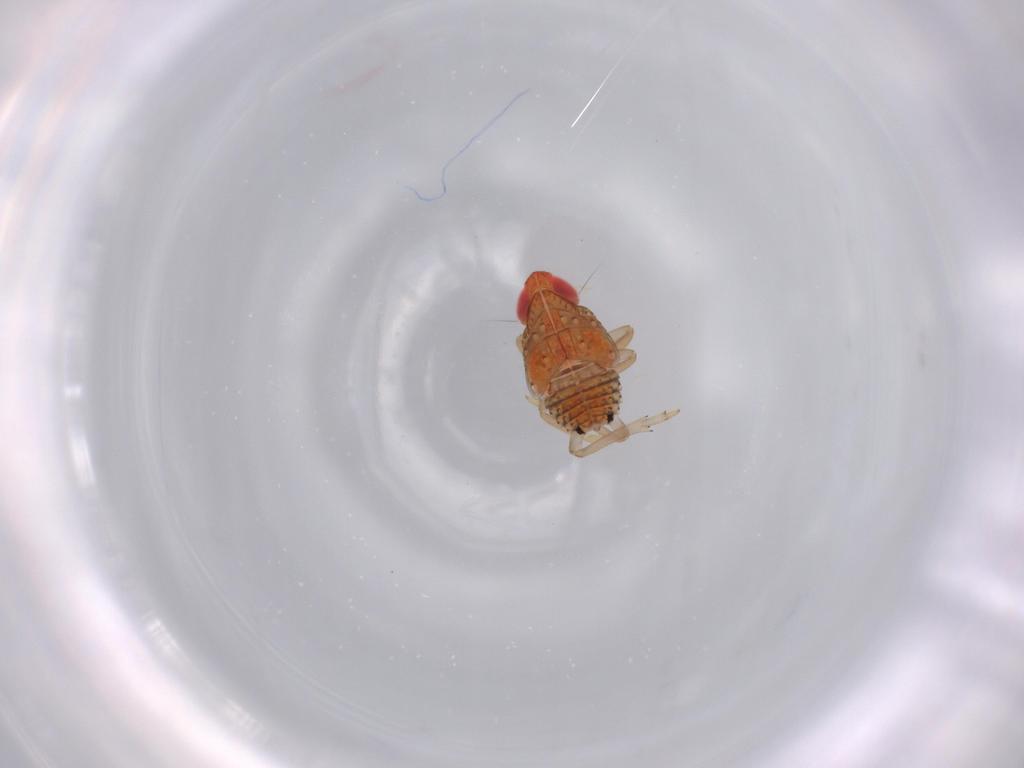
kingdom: Animalia
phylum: Arthropoda
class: Insecta
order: Hemiptera
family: Fulgoroidea_incertae_sedis
